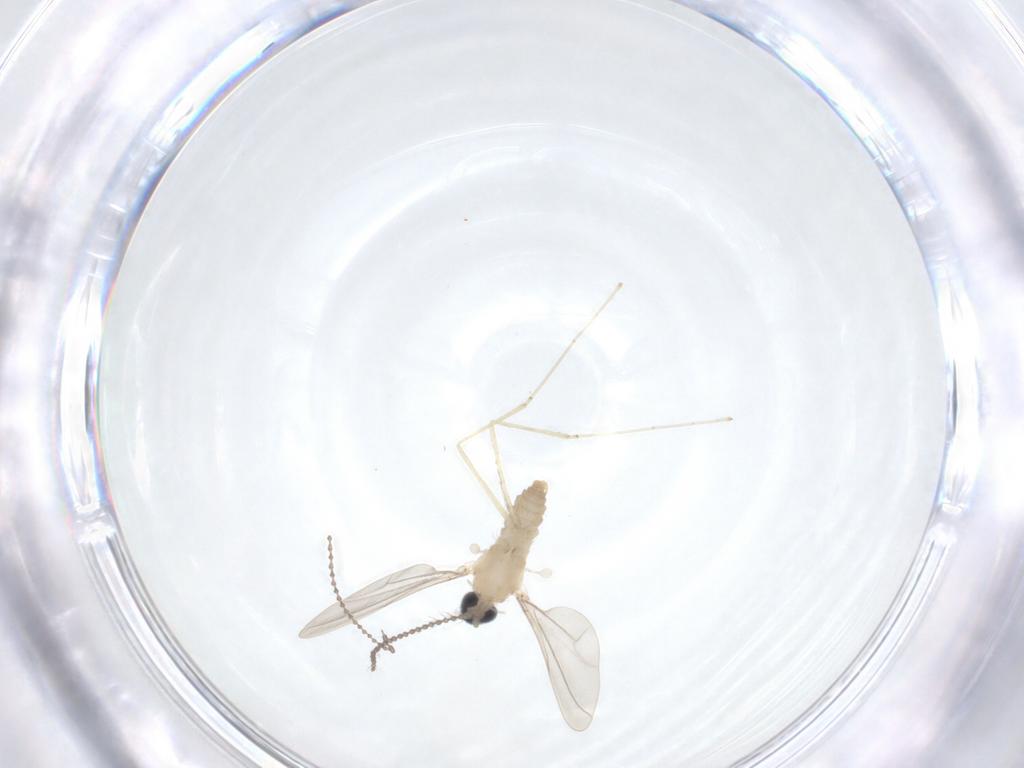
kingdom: Animalia
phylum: Arthropoda
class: Insecta
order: Diptera
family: Cecidomyiidae
